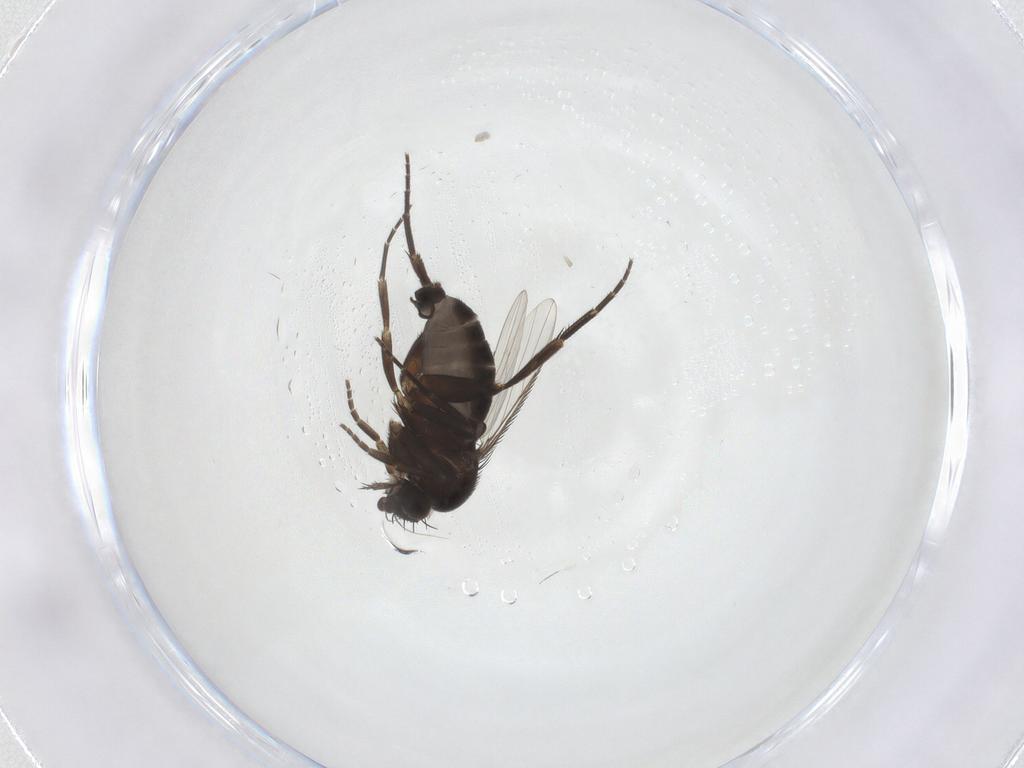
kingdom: Animalia
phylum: Arthropoda
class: Insecta
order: Diptera
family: Phoridae
